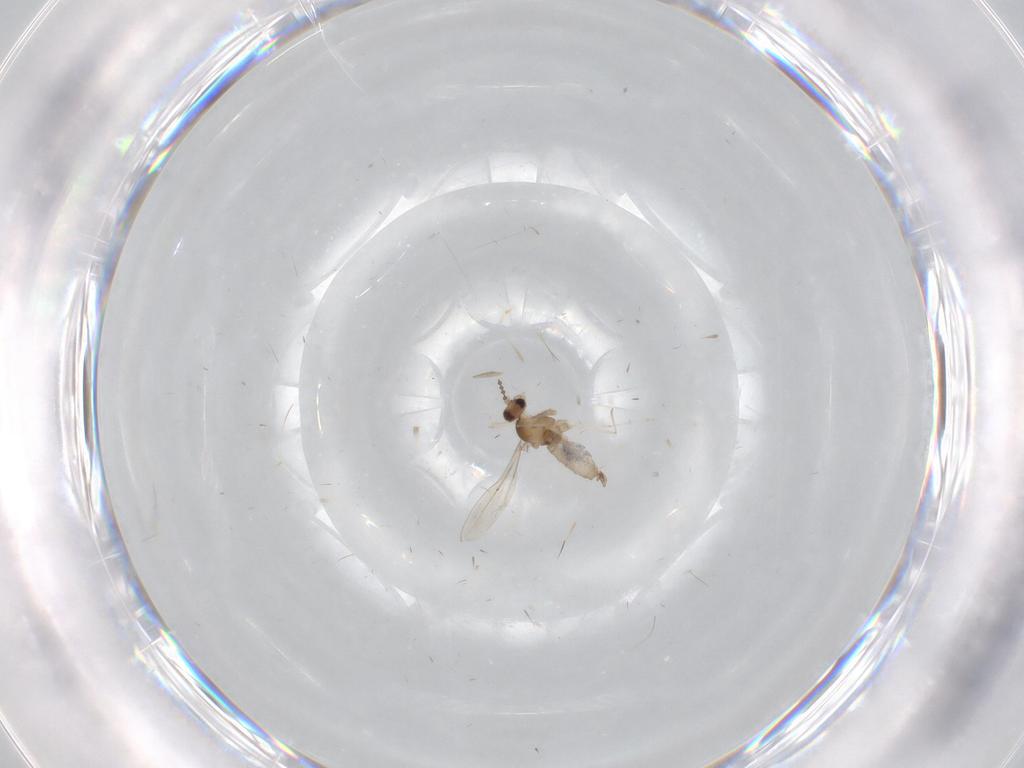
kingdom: Animalia
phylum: Arthropoda
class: Insecta
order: Diptera
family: Cecidomyiidae
